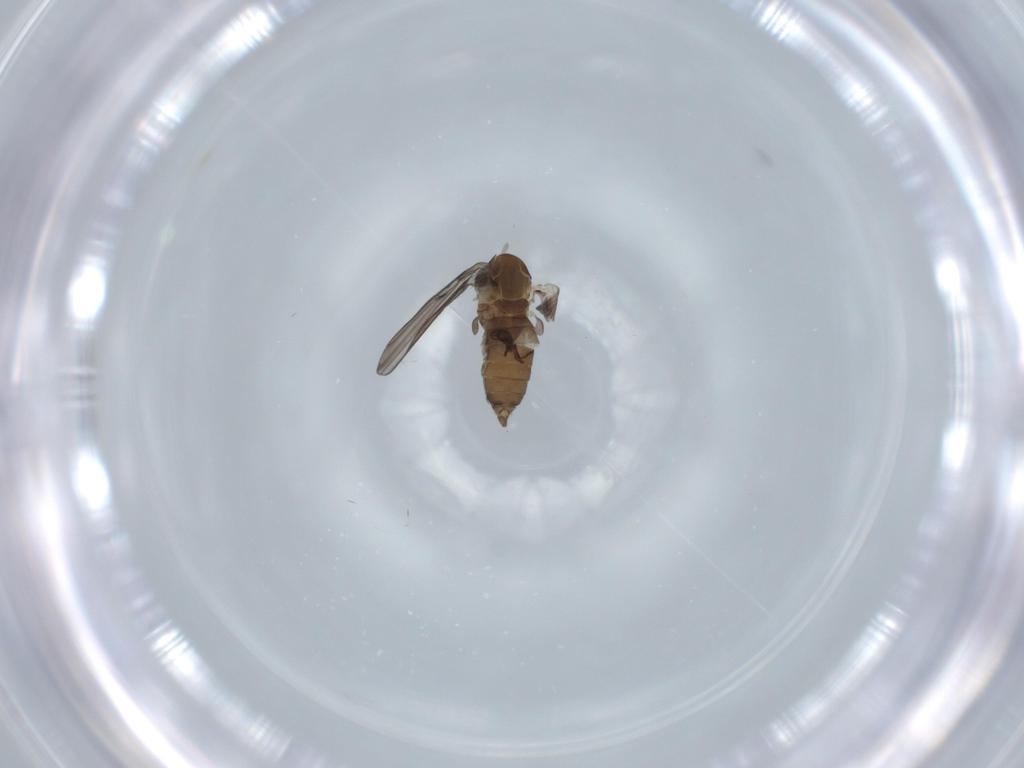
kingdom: Animalia
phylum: Arthropoda
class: Insecta
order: Diptera
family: Psychodidae
